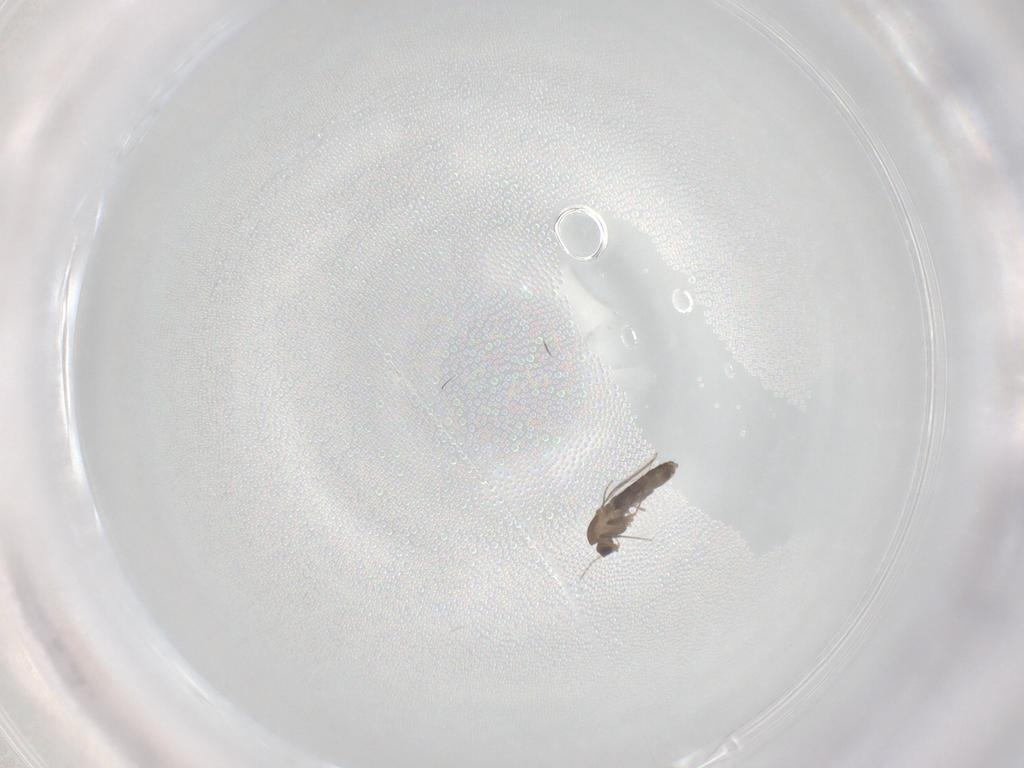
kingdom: Animalia
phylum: Arthropoda
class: Insecta
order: Diptera
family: Chironomidae
